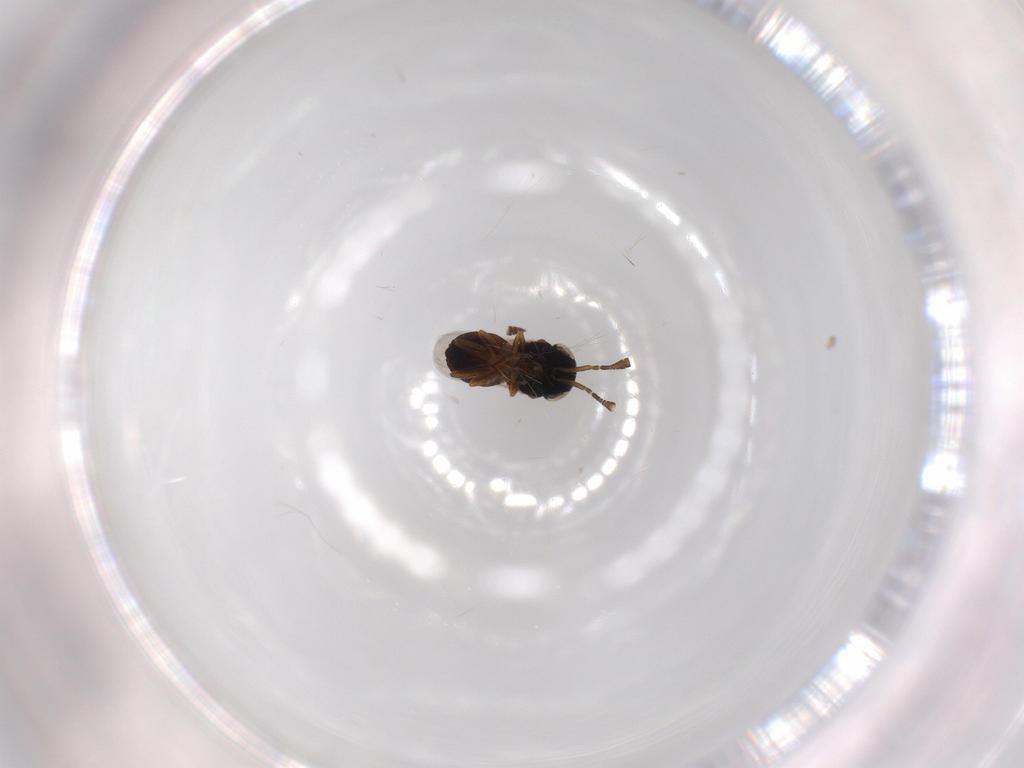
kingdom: Animalia
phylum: Arthropoda
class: Insecta
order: Hymenoptera
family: Scelionidae
